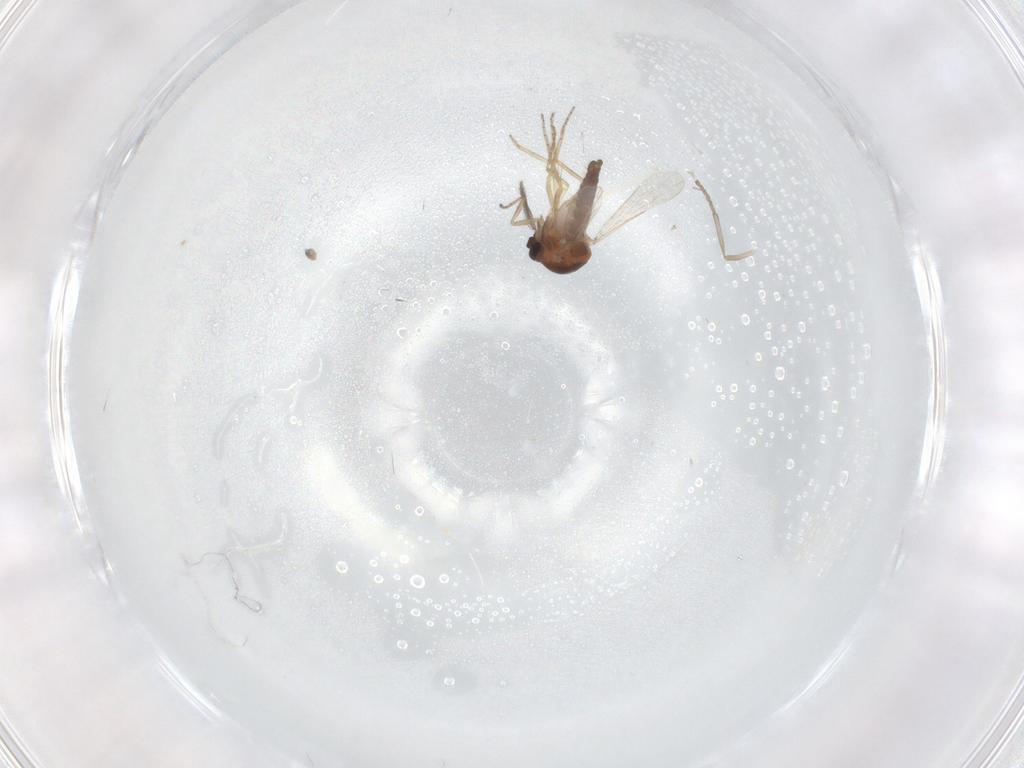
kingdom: Animalia
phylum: Arthropoda
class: Insecta
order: Diptera
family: Ceratopogonidae
